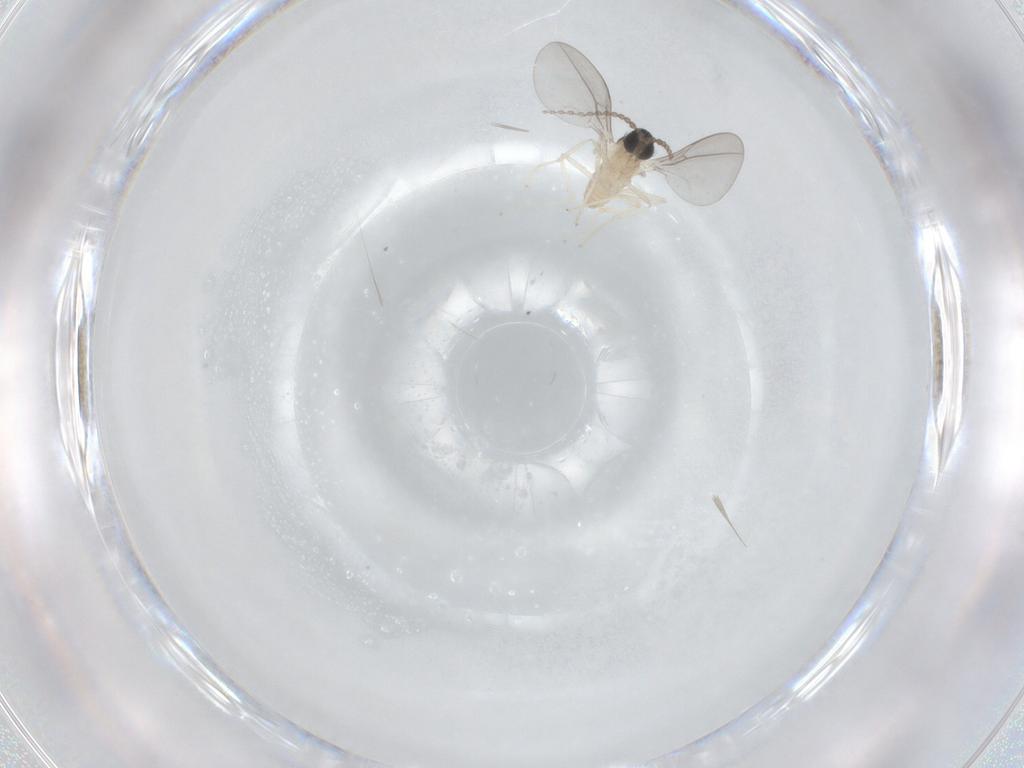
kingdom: Animalia
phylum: Arthropoda
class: Insecta
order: Diptera
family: Cecidomyiidae
